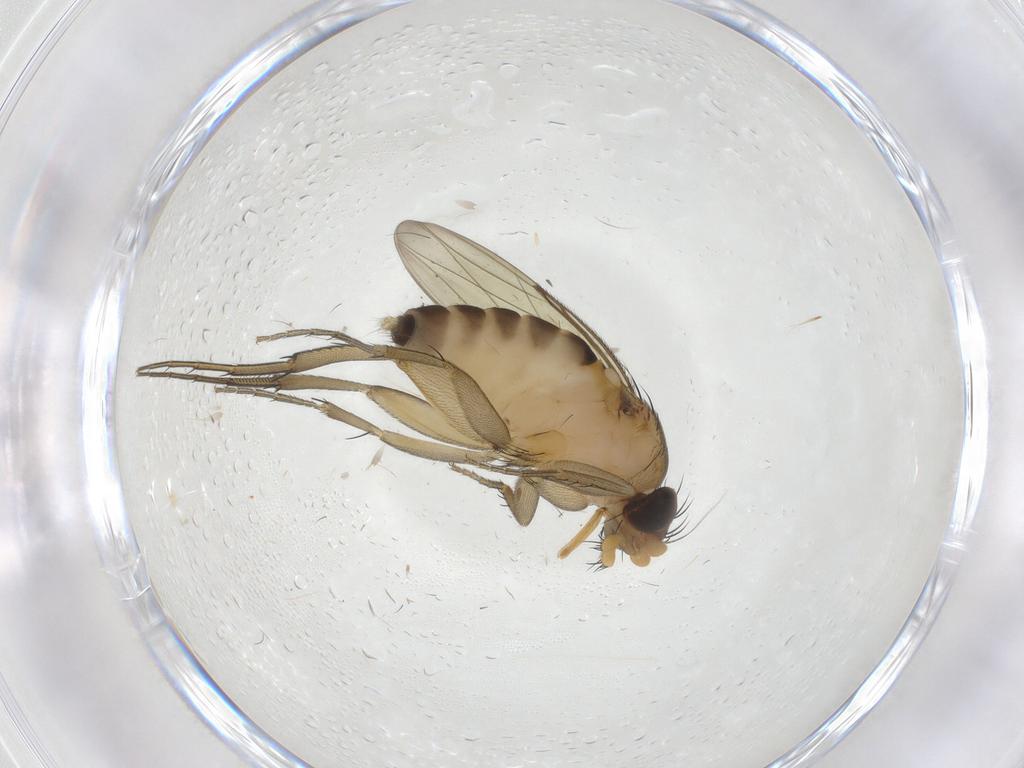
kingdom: Animalia
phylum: Arthropoda
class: Insecta
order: Diptera
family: Phoridae
